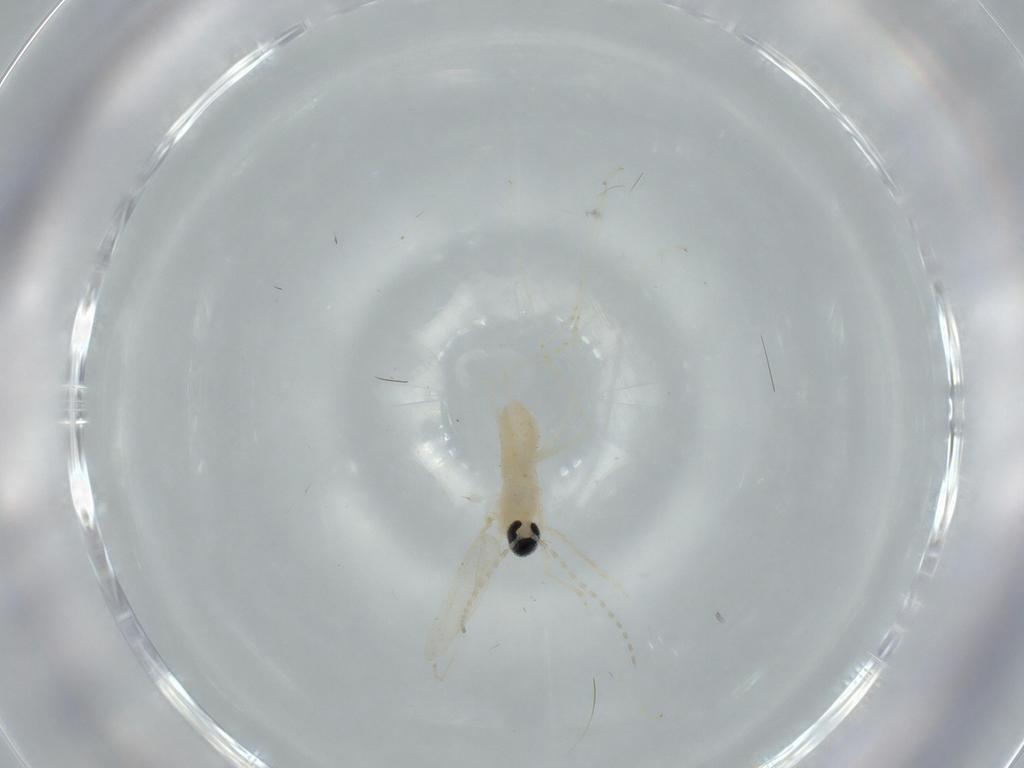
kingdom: Animalia
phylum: Arthropoda
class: Insecta
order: Diptera
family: Cecidomyiidae
